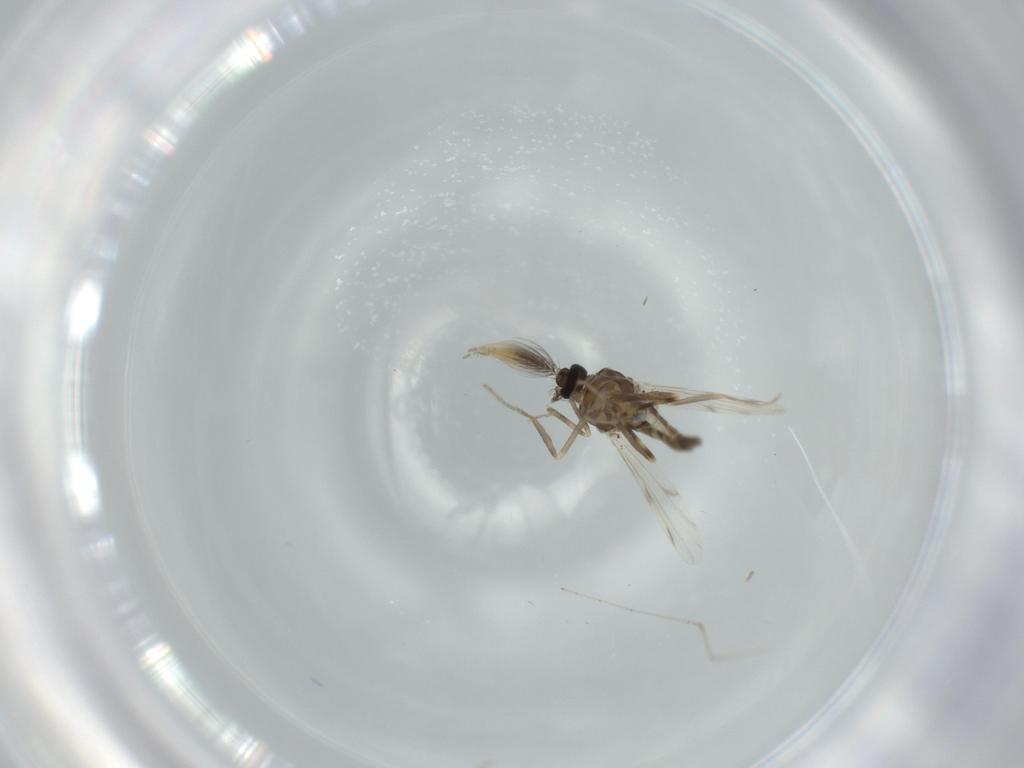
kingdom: Animalia
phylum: Arthropoda
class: Insecta
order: Diptera
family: Ceratopogonidae
